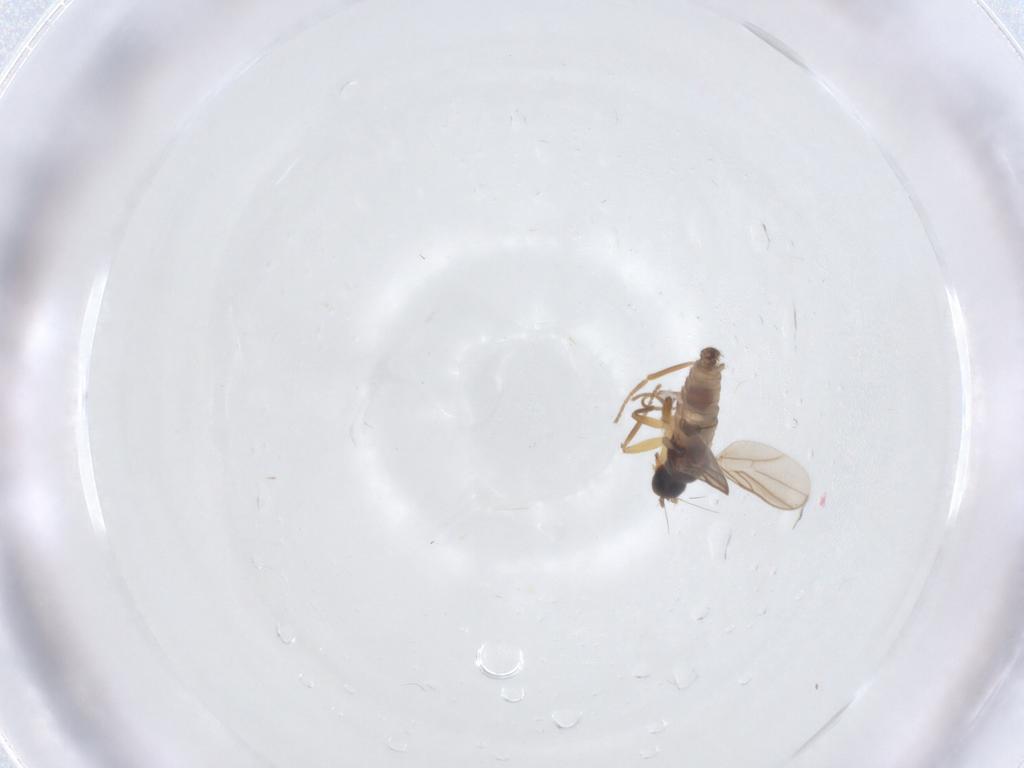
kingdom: Animalia
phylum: Arthropoda
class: Insecta
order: Diptera
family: Hybotidae
